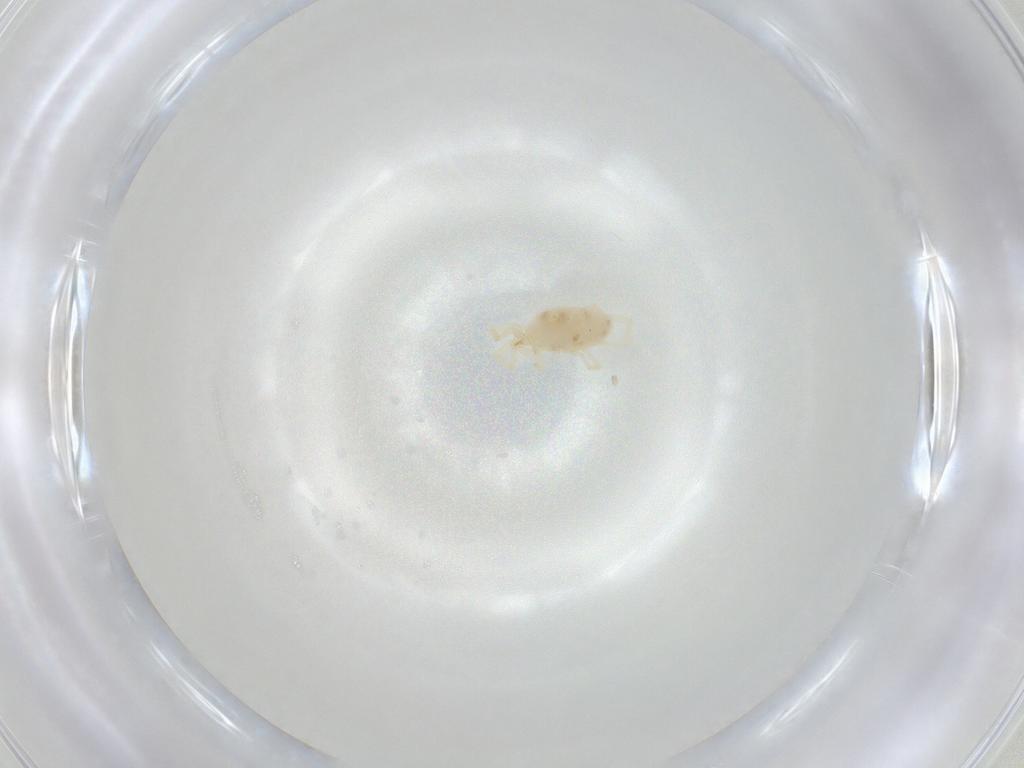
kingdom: Animalia
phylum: Arthropoda
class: Arachnida
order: Trombidiformes
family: Erythraeidae
